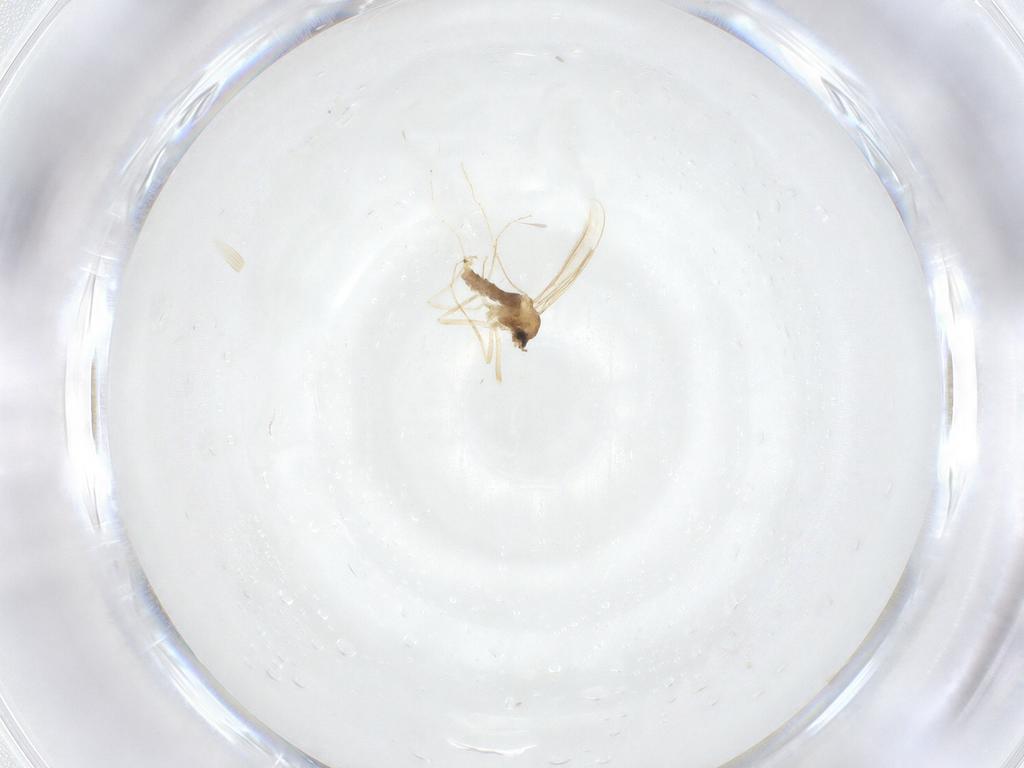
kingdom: Animalia
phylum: Arthropoda
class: Insecta
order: Diptera
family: Cecidomyiidae
